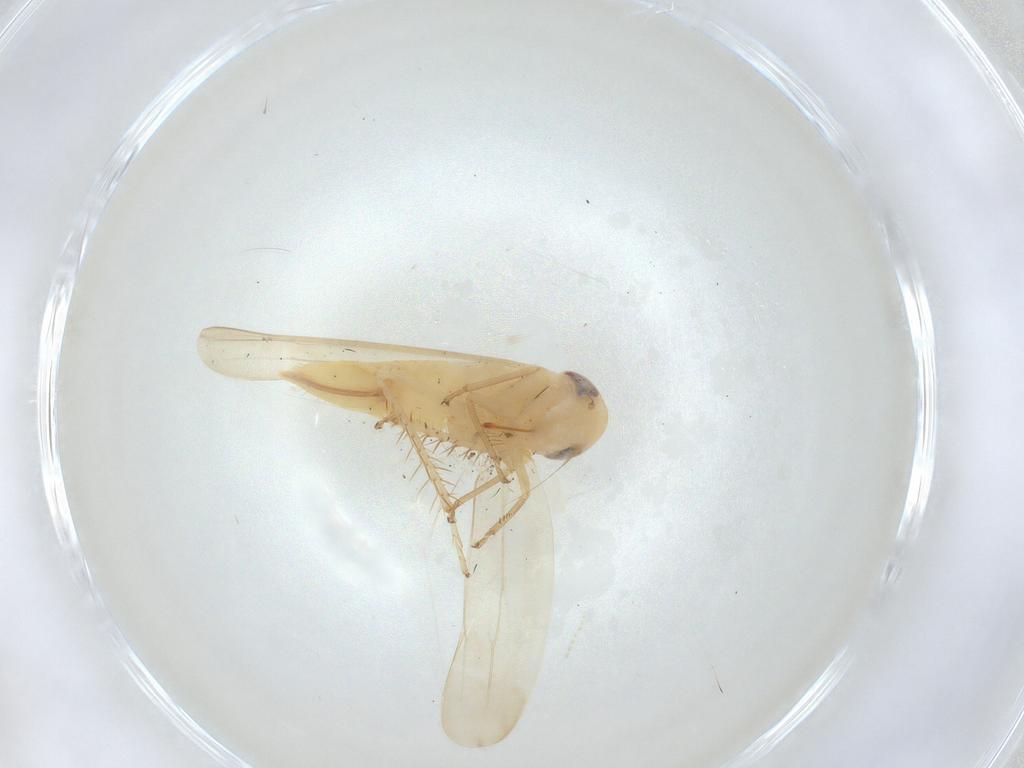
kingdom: Animalia
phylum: Arthropoda
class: Insecta
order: Hemiptera
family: Cicadellidae
